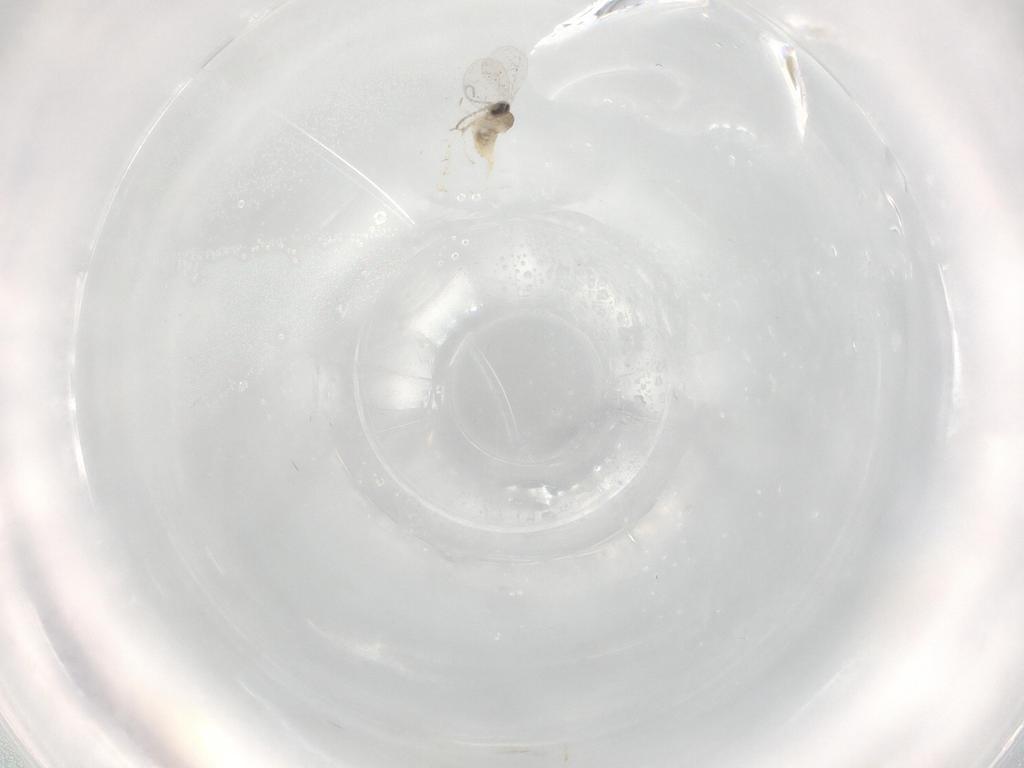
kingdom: Animalia
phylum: Arthropoda
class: Insecta
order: Diptera
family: Cecidomyiidae
